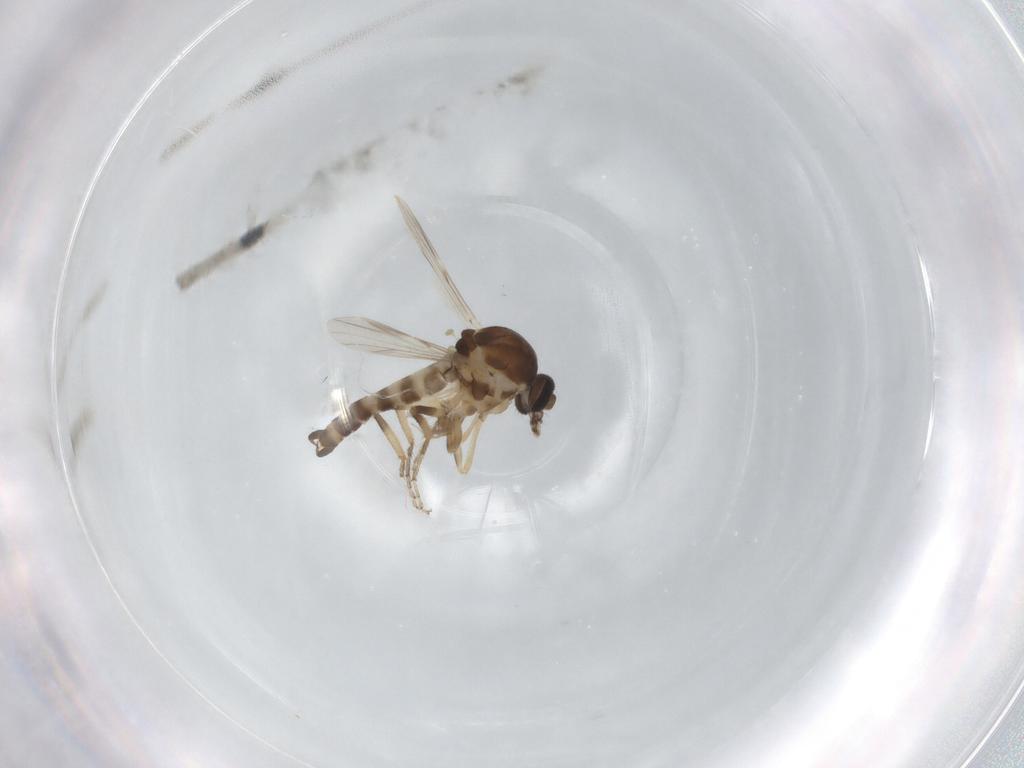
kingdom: Animalia
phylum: Arthropoda
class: Insecta
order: Diptera
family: Ceratopogonidae
